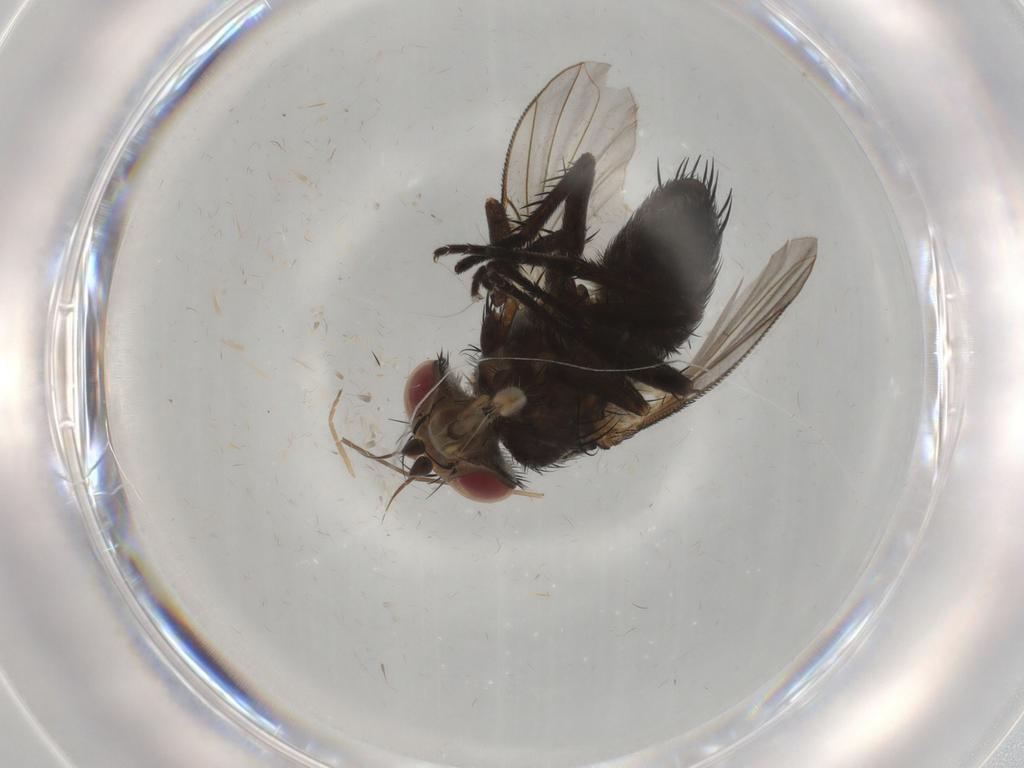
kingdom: Animalia
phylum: Arthropoda
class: Insecta
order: Diptera
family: Tachinidae
